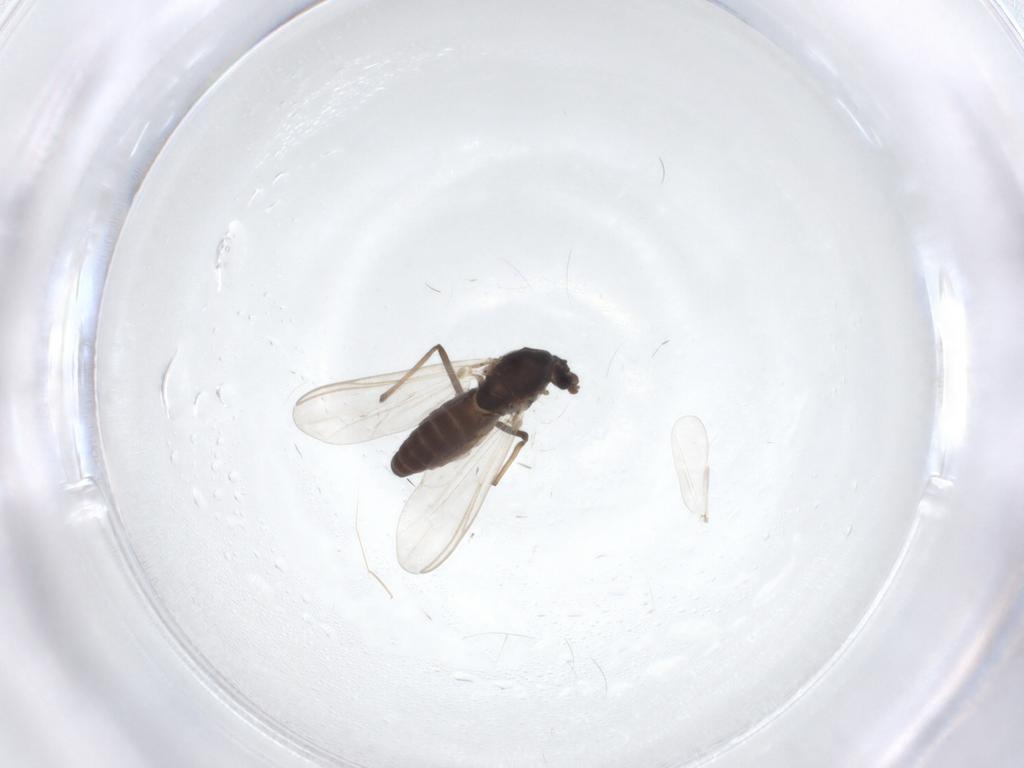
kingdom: Animalia
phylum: Arthropoda
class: Insecta
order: Diptera
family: Chironomidae
